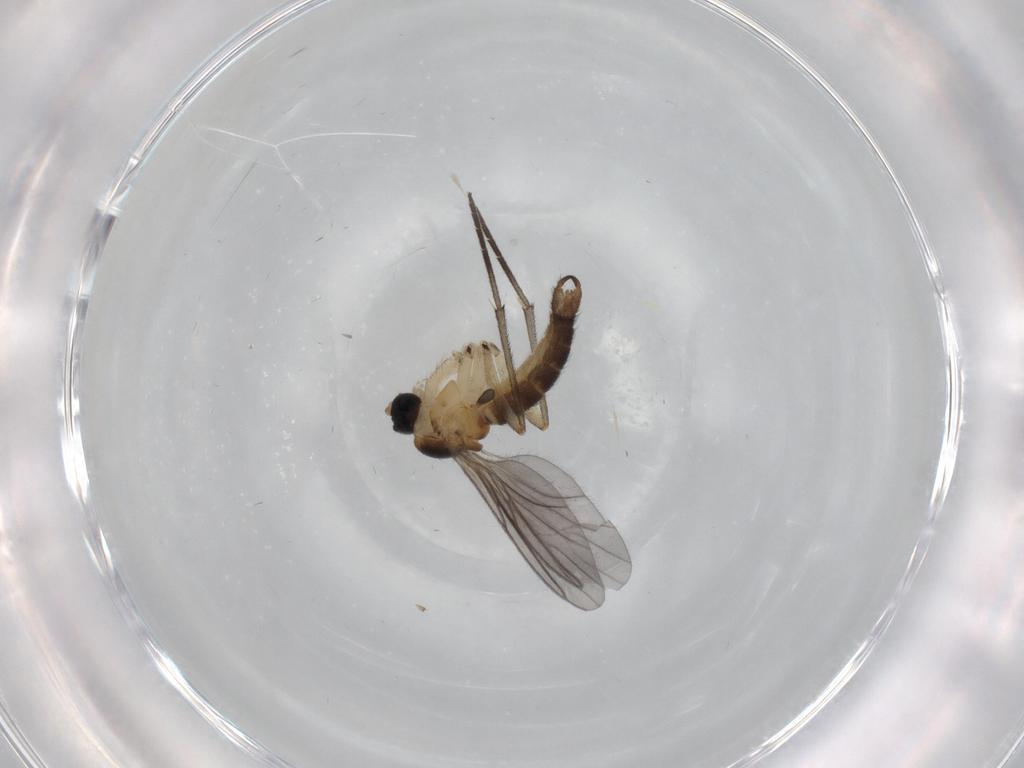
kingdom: Animalia
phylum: Arthropoda
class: Insecta
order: Diptera
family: Sciaridae
